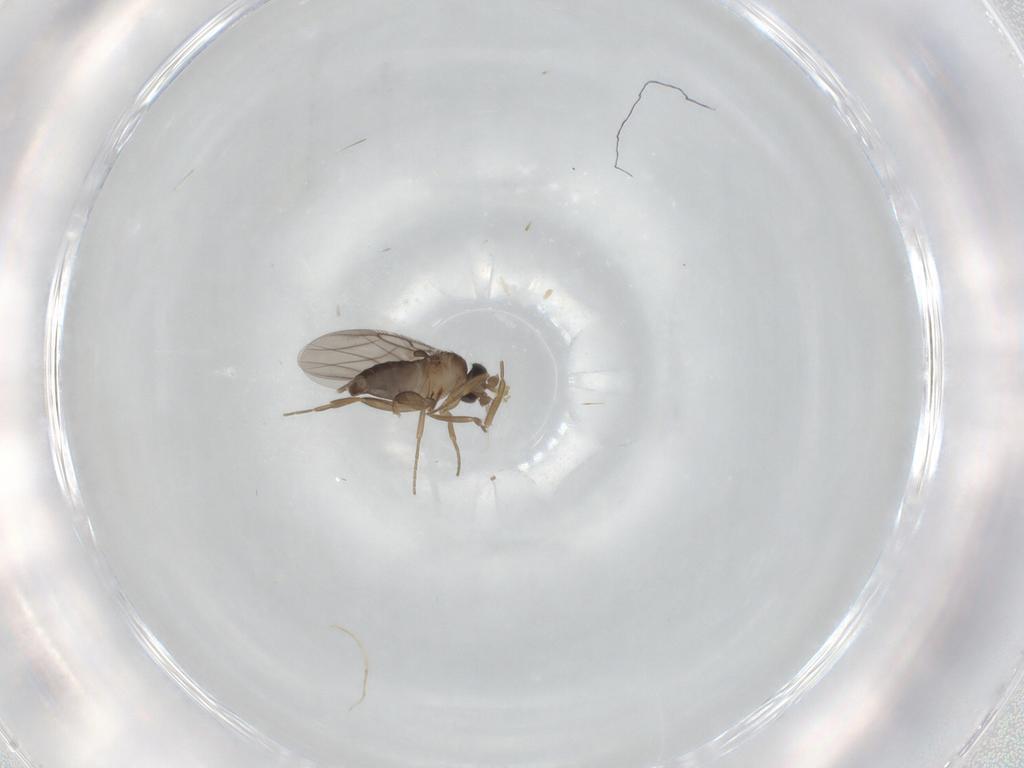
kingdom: Animalia
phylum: Arthropoda
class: Insecta
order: Diptera
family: Phoridae
